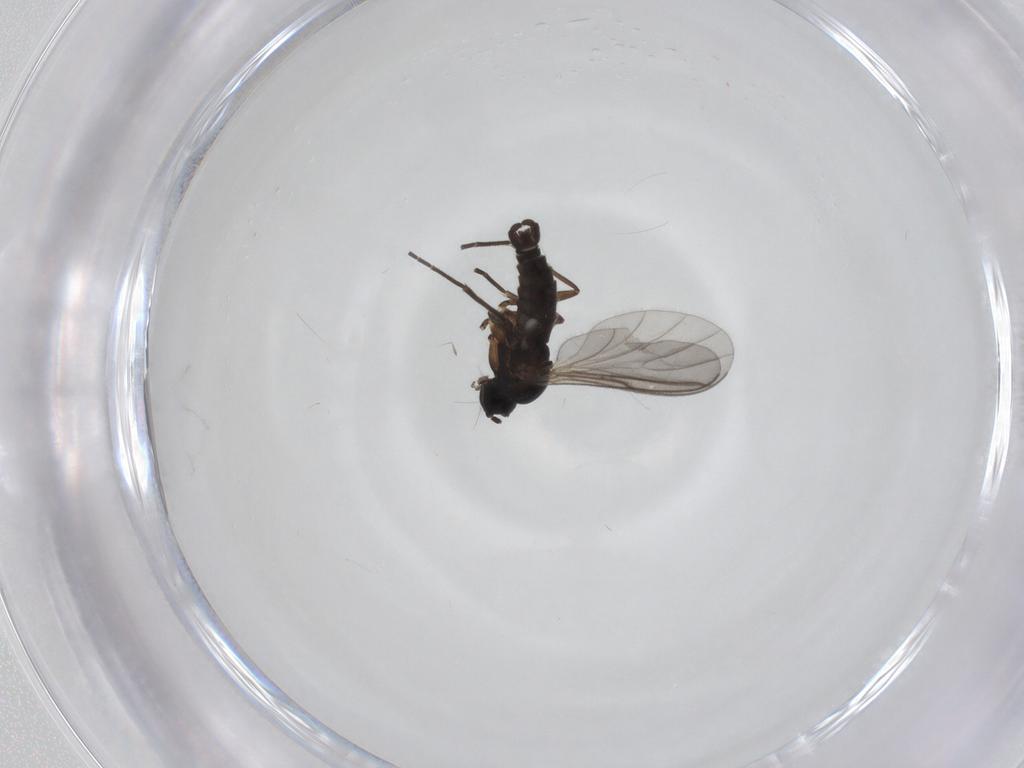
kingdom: Animalia
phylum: Arthropoda
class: Insecta
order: Diptera
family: Sciaridae
